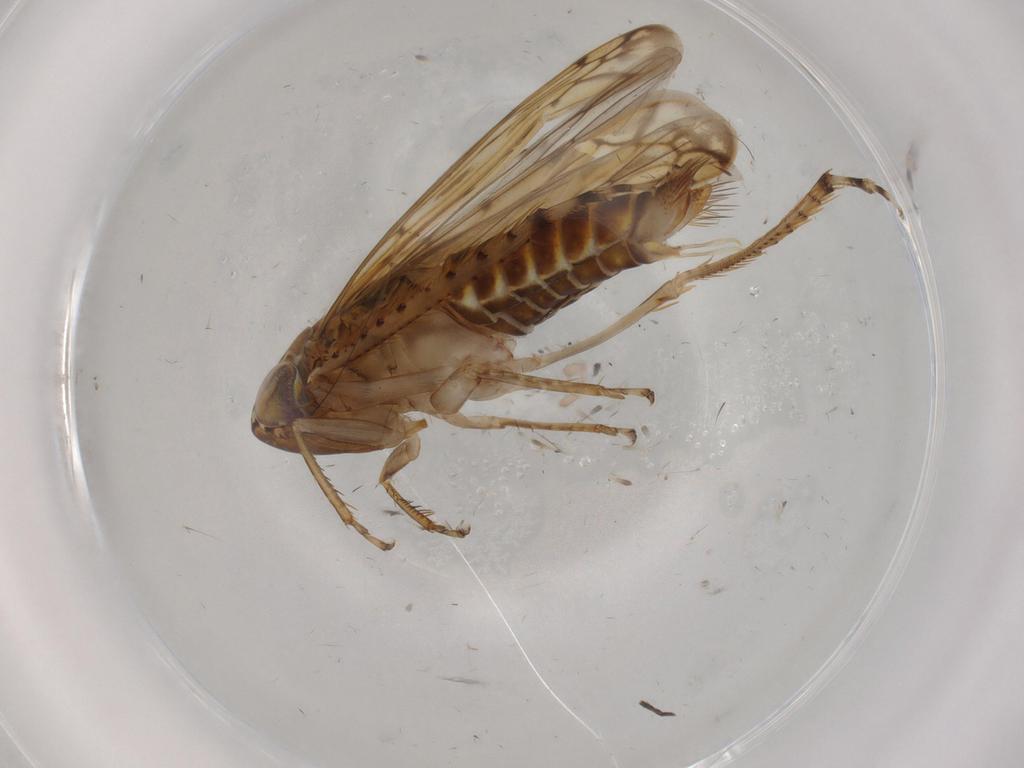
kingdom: Animalia
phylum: Arthropoda
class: Insecta
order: Hemiptera
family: Cicadellidae
